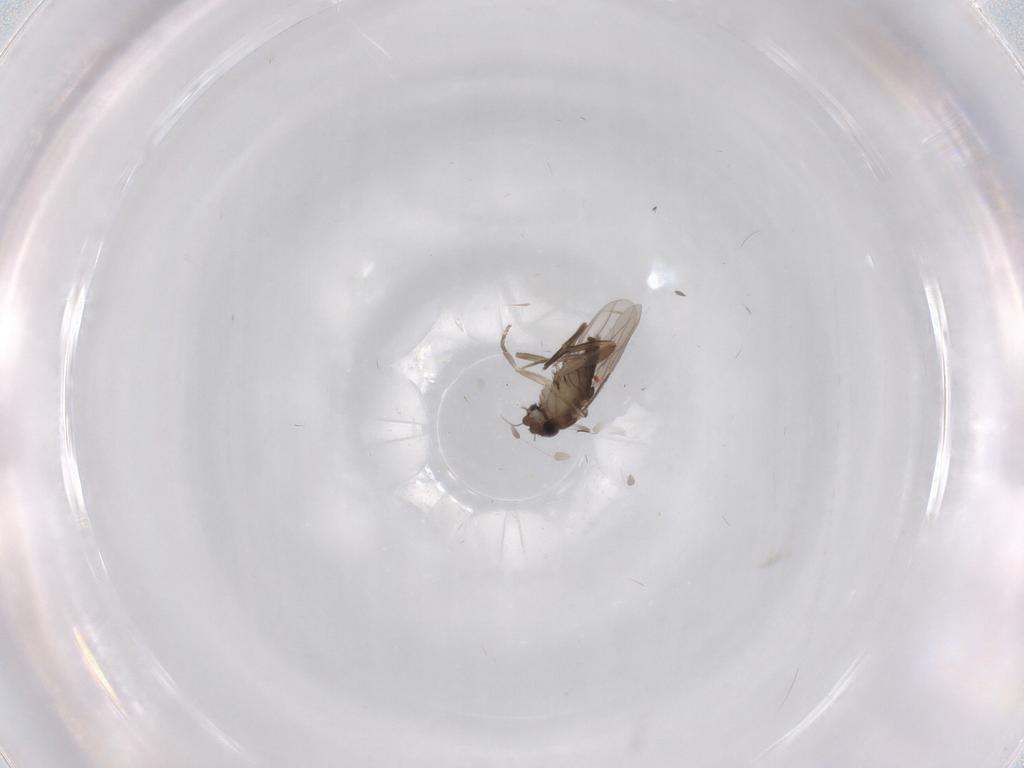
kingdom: Animalia
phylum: Arthropoda
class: Insecta
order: Diptera
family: Phoridae
